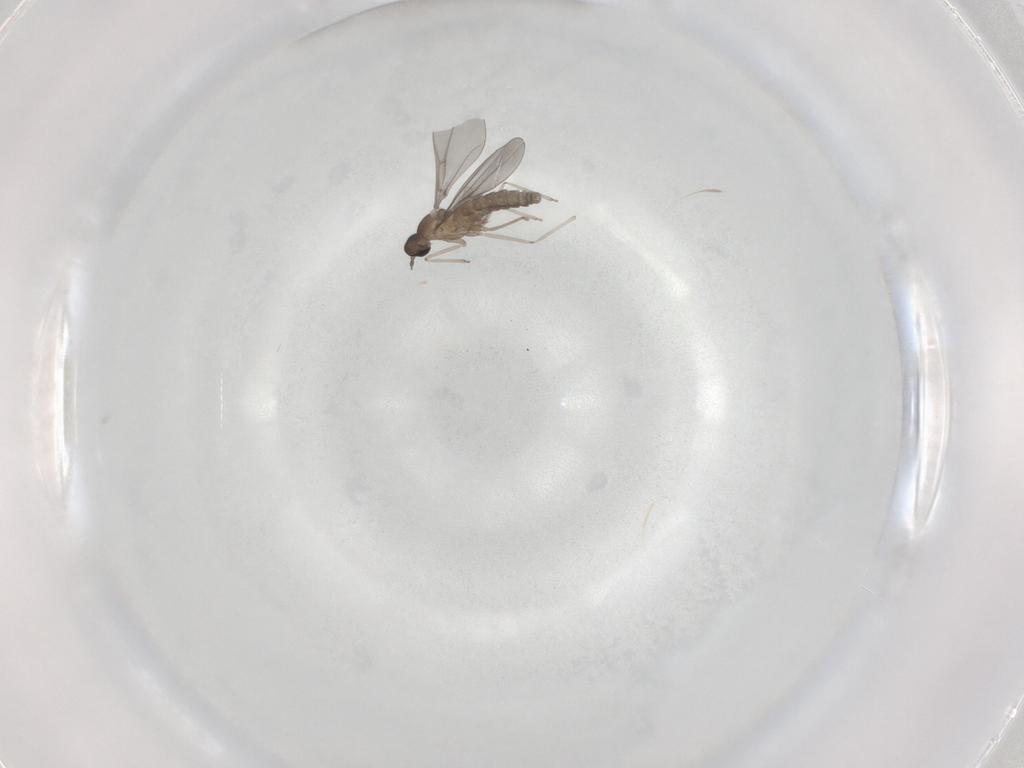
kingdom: Animalia
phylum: Arthropoda
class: Insecta
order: Diptera
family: Cecidomyiidae
